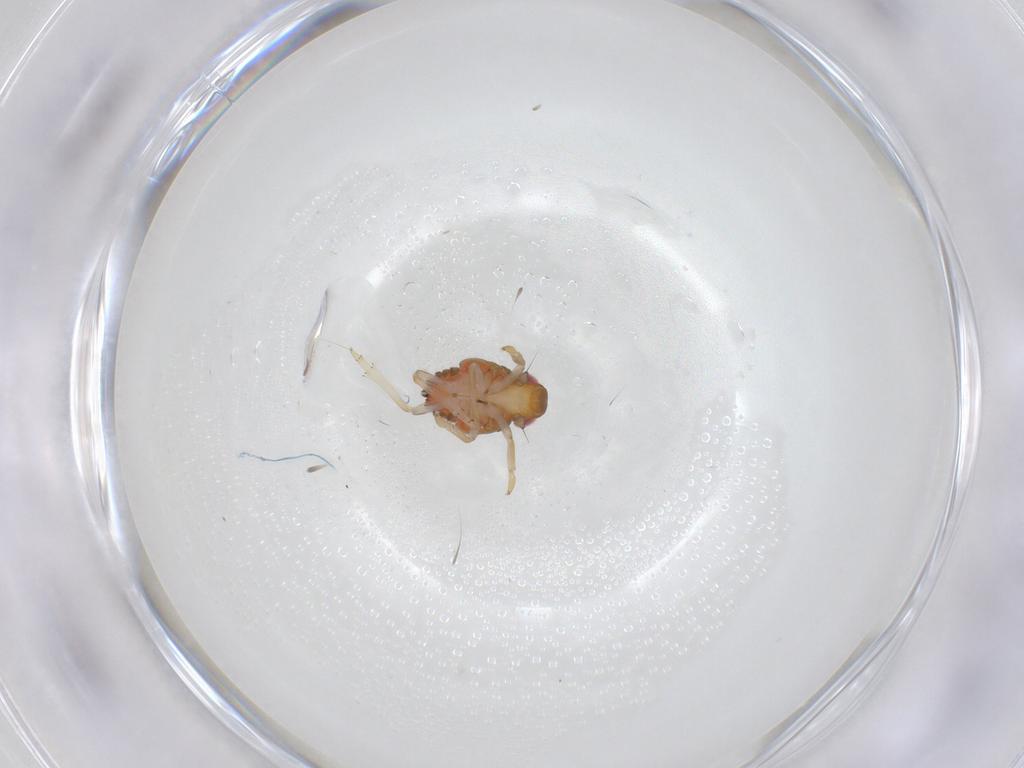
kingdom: Animalia
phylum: Arthropoda
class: Insecta
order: Hemiptera
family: Issidae
